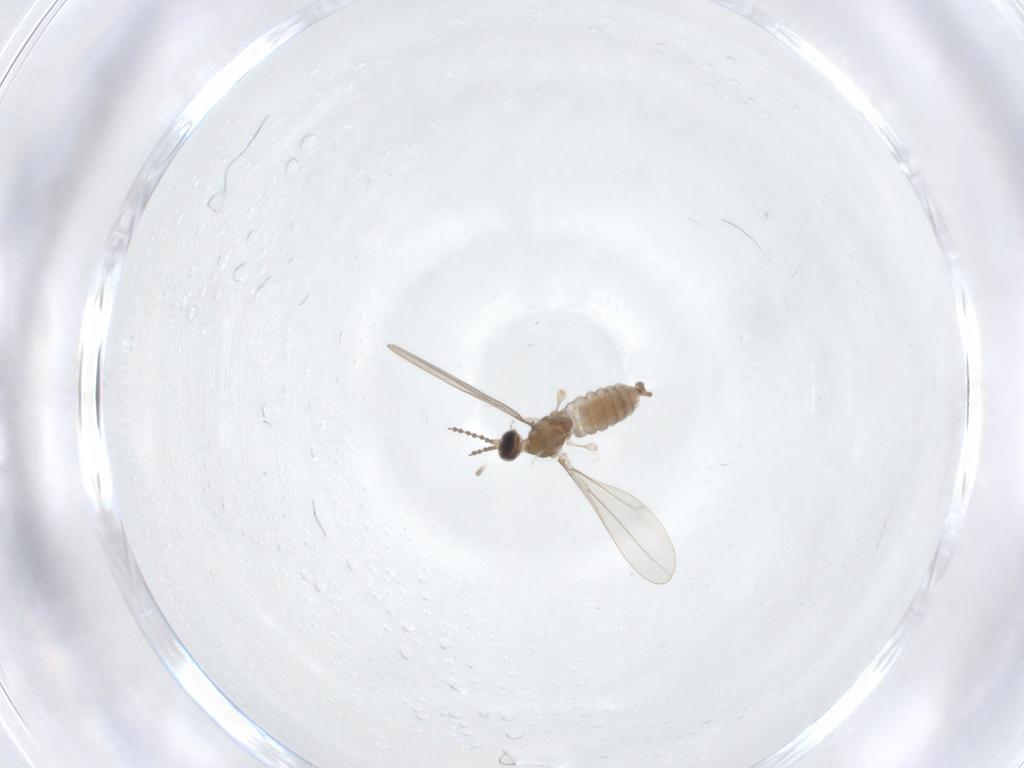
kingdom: Animalia
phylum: Arthropoda
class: Insecta
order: Diptera
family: Cecidomyiidae
